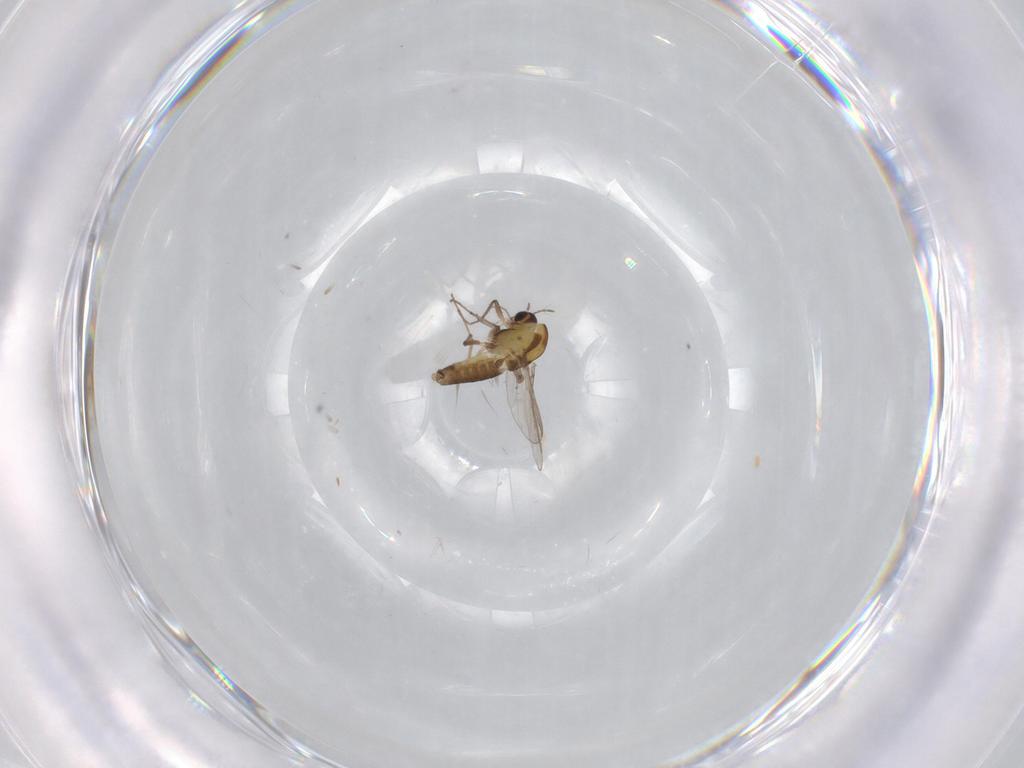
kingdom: Animalia
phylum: Arthropoda
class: Insecta
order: Diptera
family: Chironomidae
